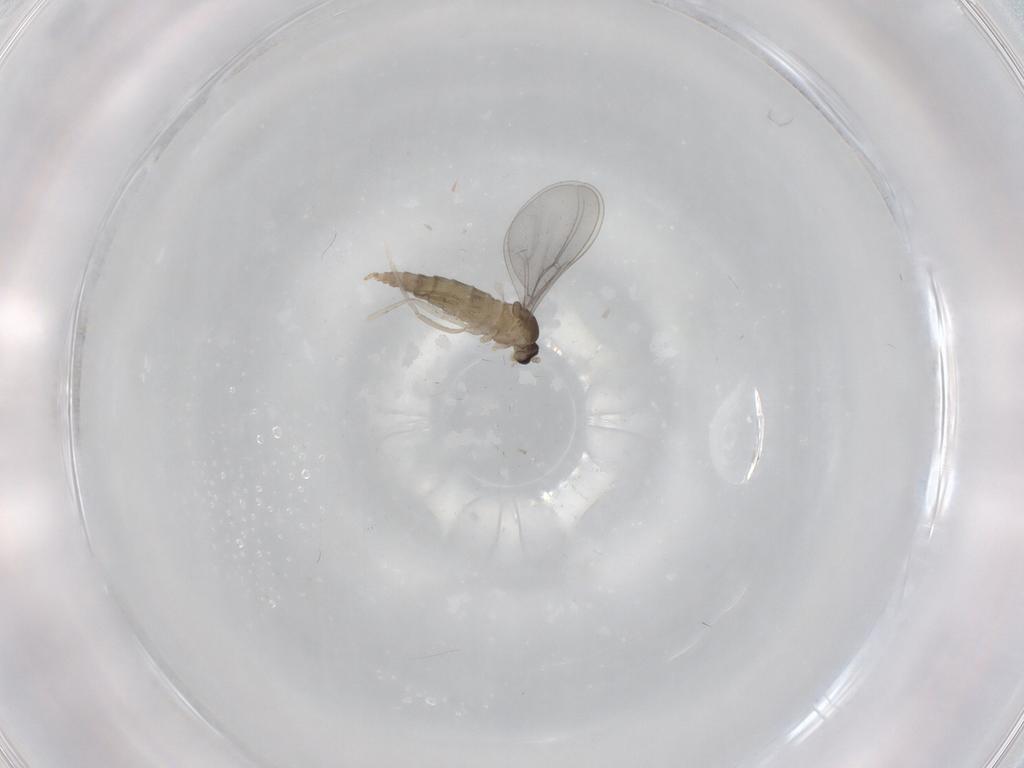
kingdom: Animalia
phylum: Arthropoda
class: Insecta
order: Diptera
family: Cecidomyiidae
